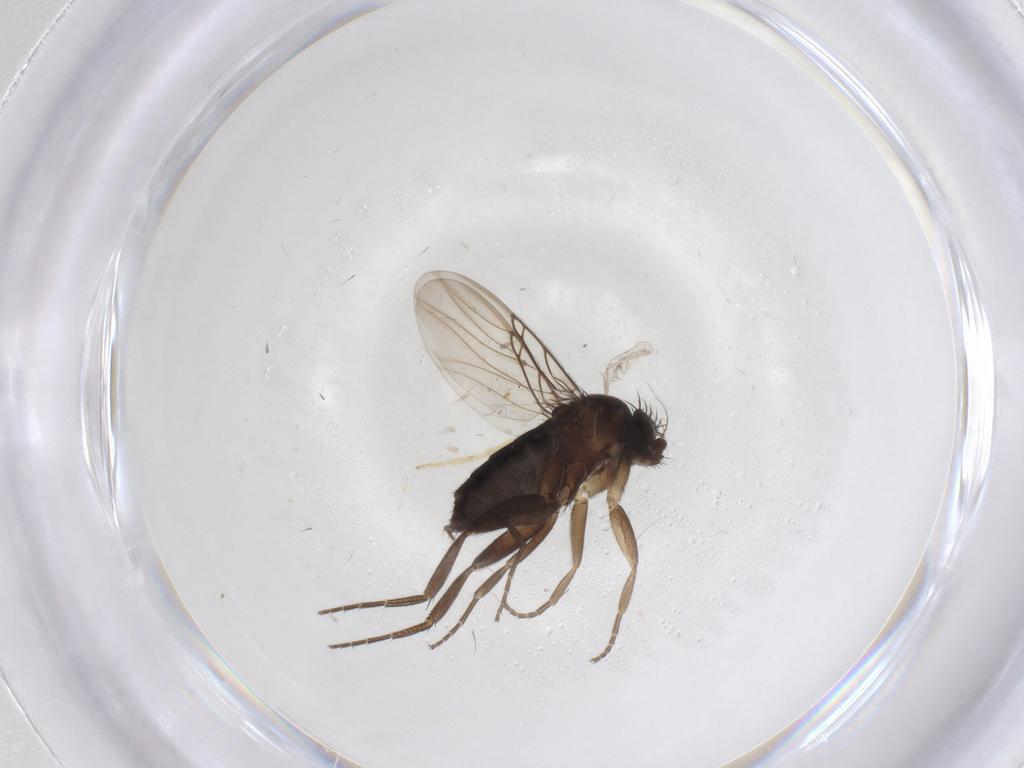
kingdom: Animalia
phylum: Arthropoda
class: Insecta
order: Diptera
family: Phoridae
